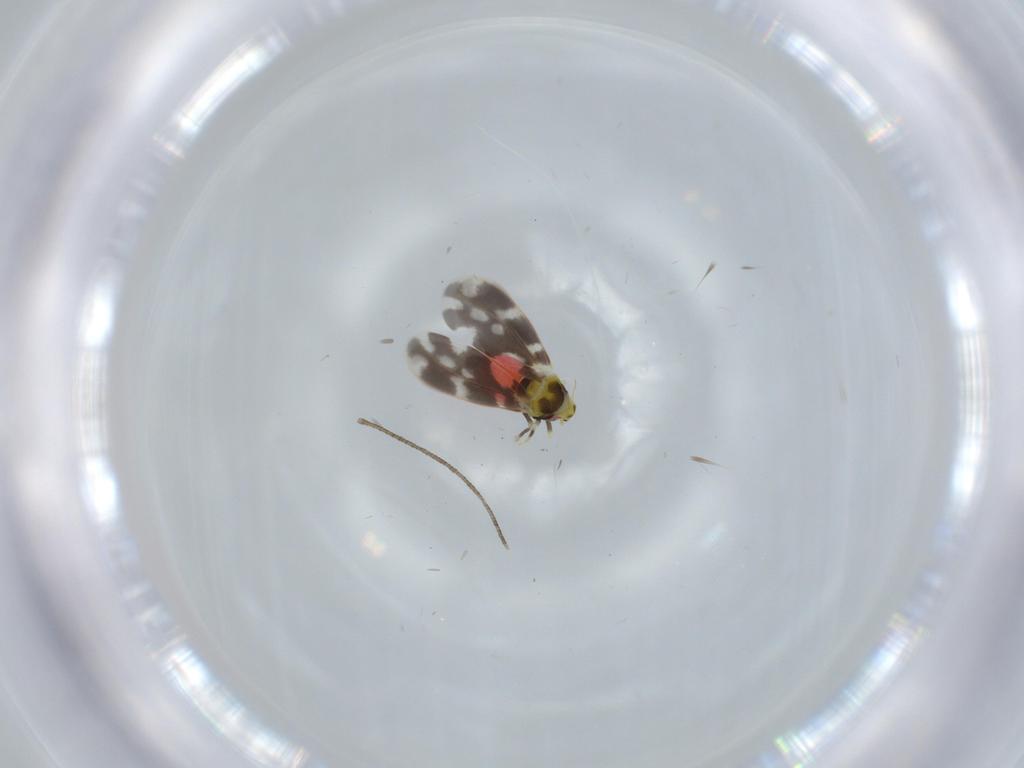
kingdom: Animalia
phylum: Arthropoda
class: Insecta
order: Hemiptera
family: Aleyrodidae
